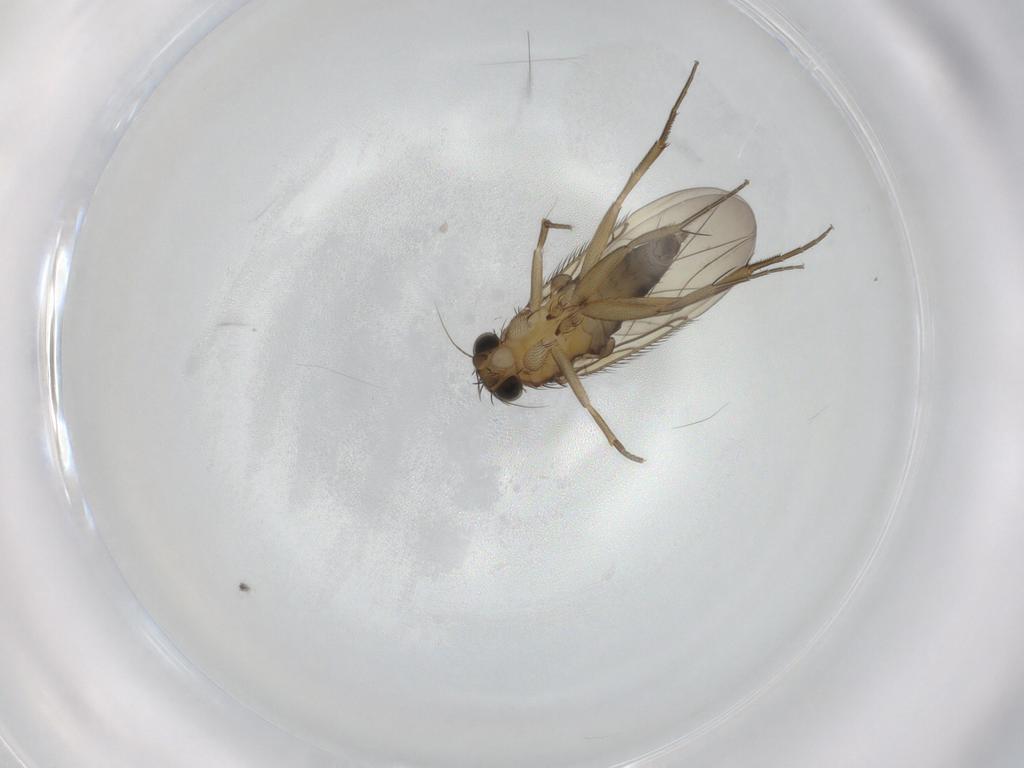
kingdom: Animalia
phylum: Arthropoda
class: Insecta
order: Diptera
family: Phoridae
